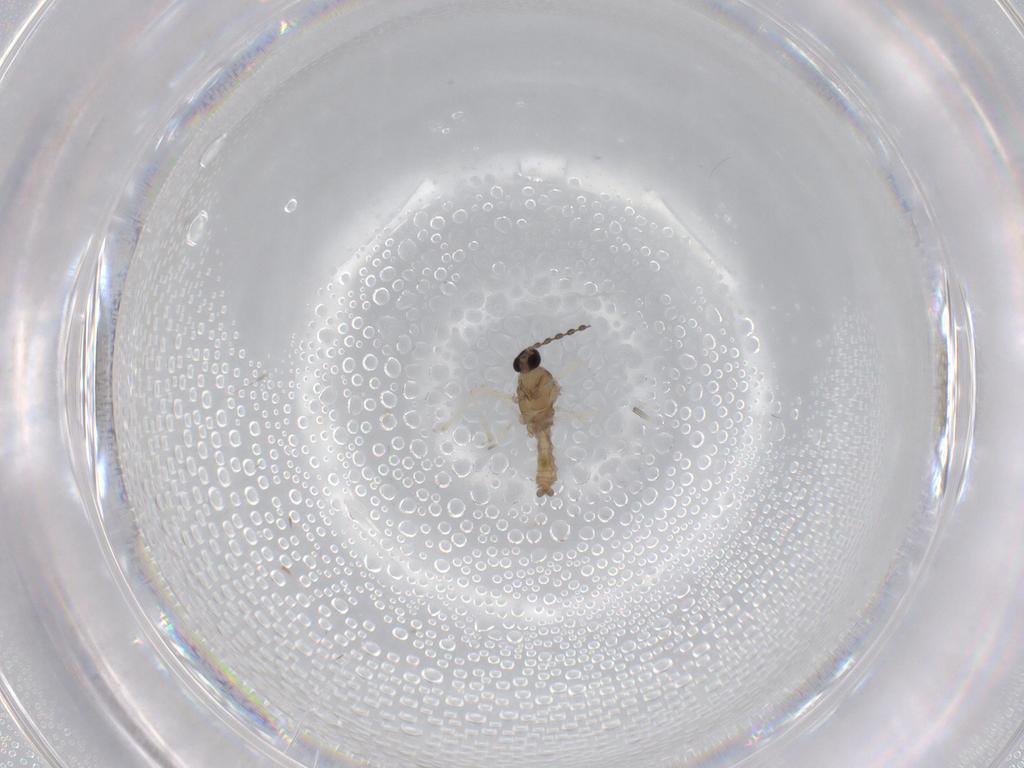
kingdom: Animalia
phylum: Arthropoda
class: Insecta
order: Diptera
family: Cecidomyiidae
